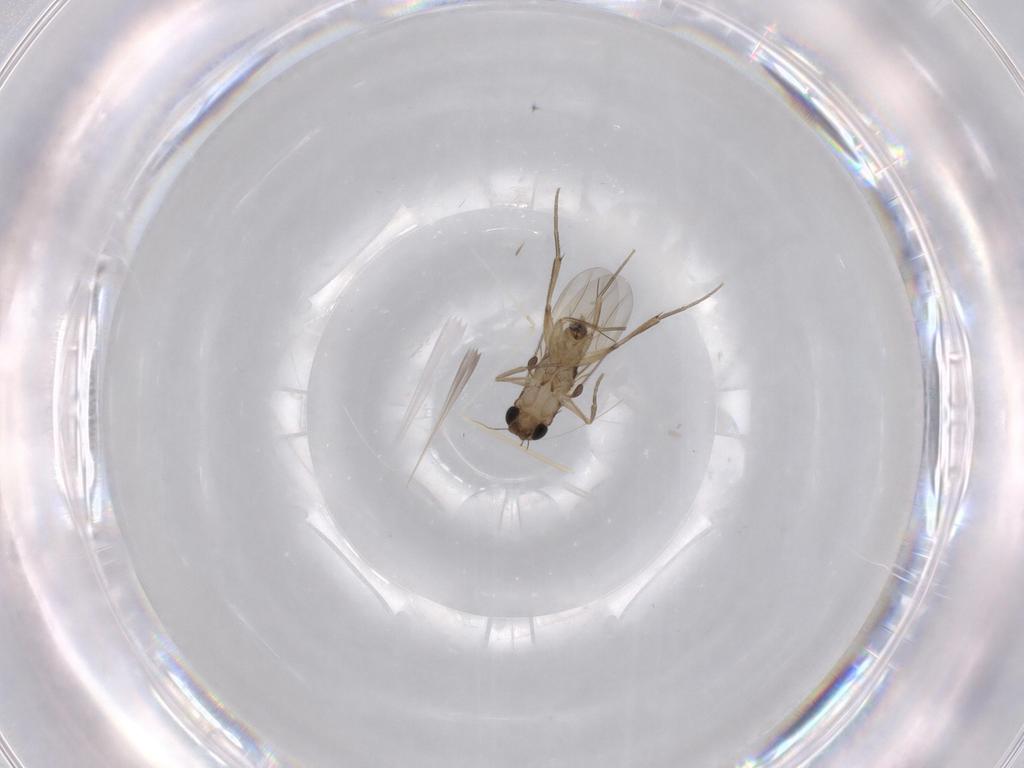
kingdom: Animalia
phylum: Arthropoda
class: Insecta
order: Diptera
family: Phoridae
